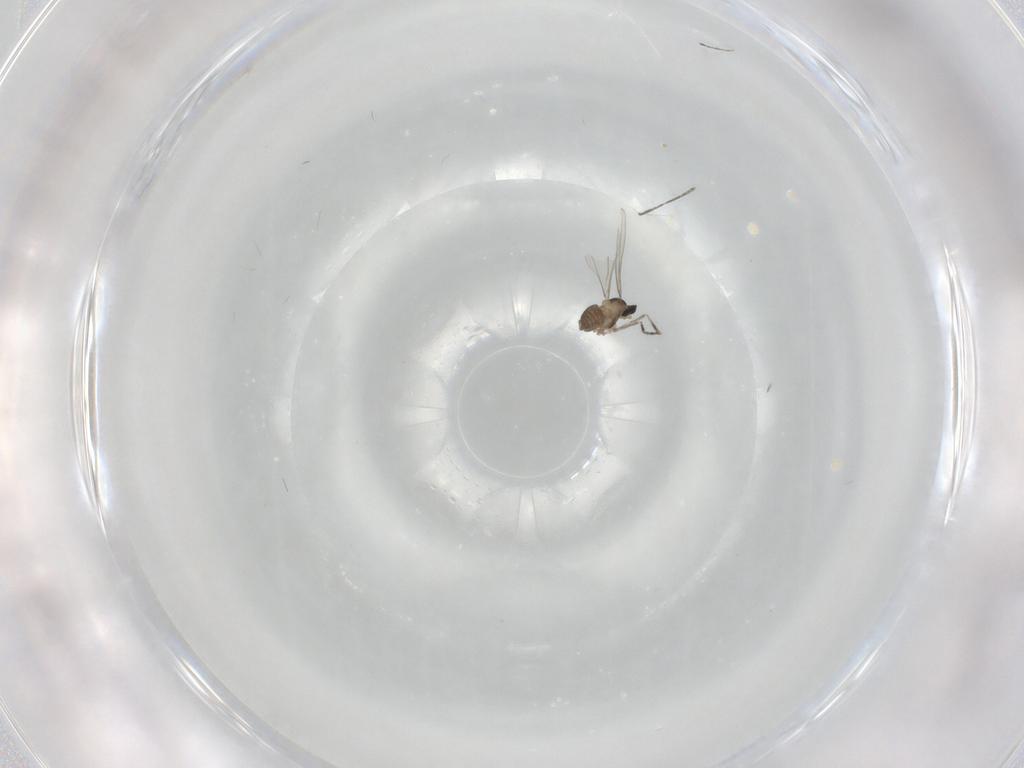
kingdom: Animalia
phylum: Arthropoda
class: Insecta
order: Diptera
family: Cecidomyiidae
